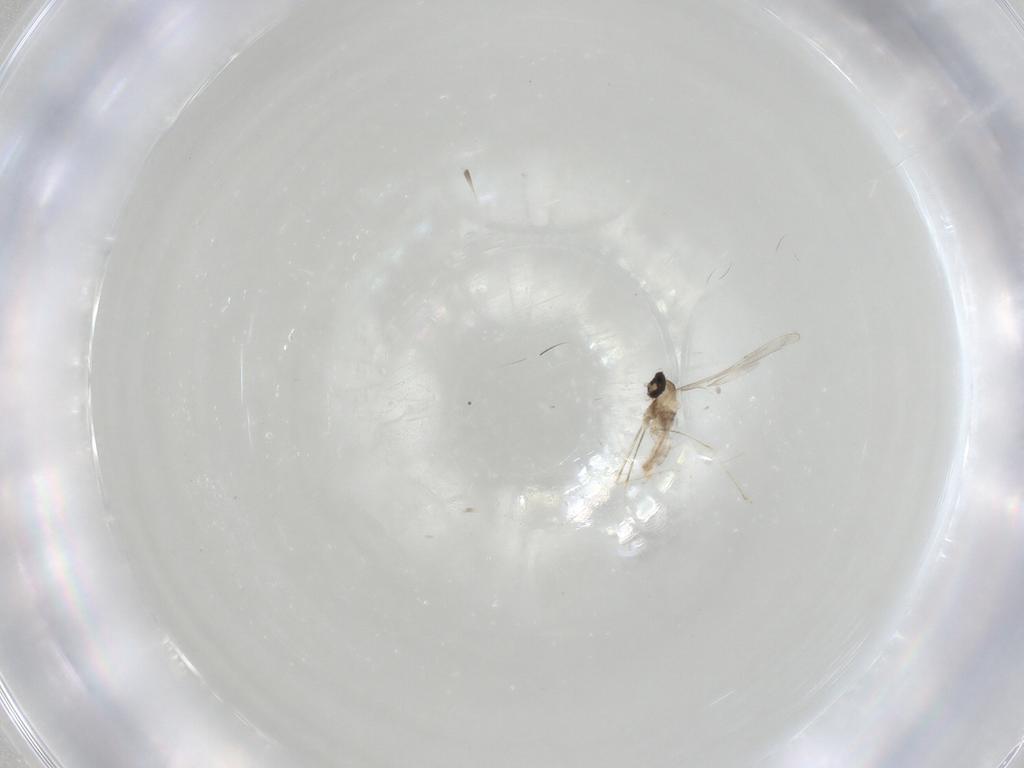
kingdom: Animalia
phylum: Arthropoda
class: Insecta
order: Diptera
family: Cecidomyiidae
